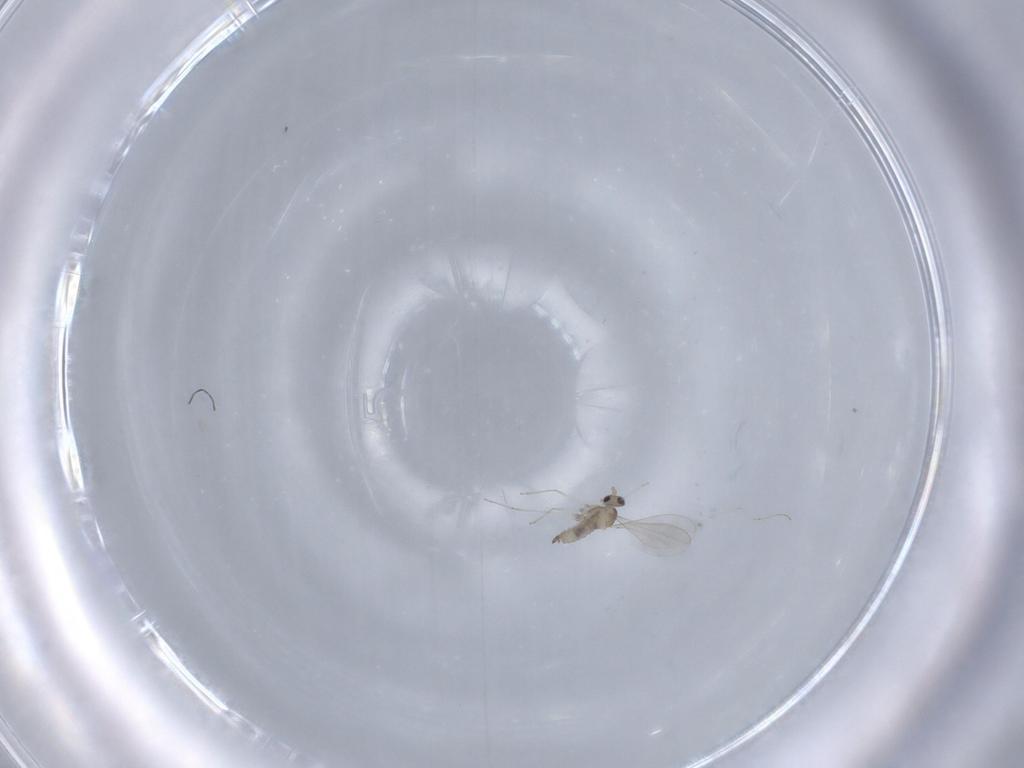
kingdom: Animalia
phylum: Arthropoda
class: Insecta
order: Diptera
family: Cecidomyiidae
